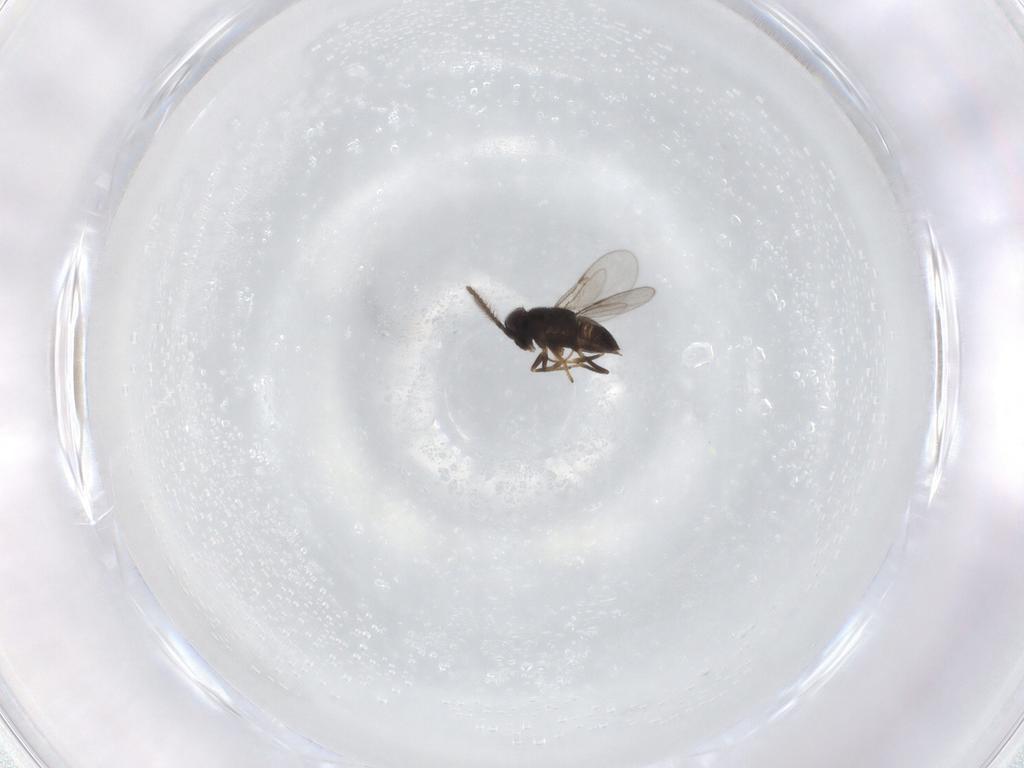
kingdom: Animalia
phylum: Arthropoda
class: Insecta
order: Hymenoptera
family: Encyrtidae
